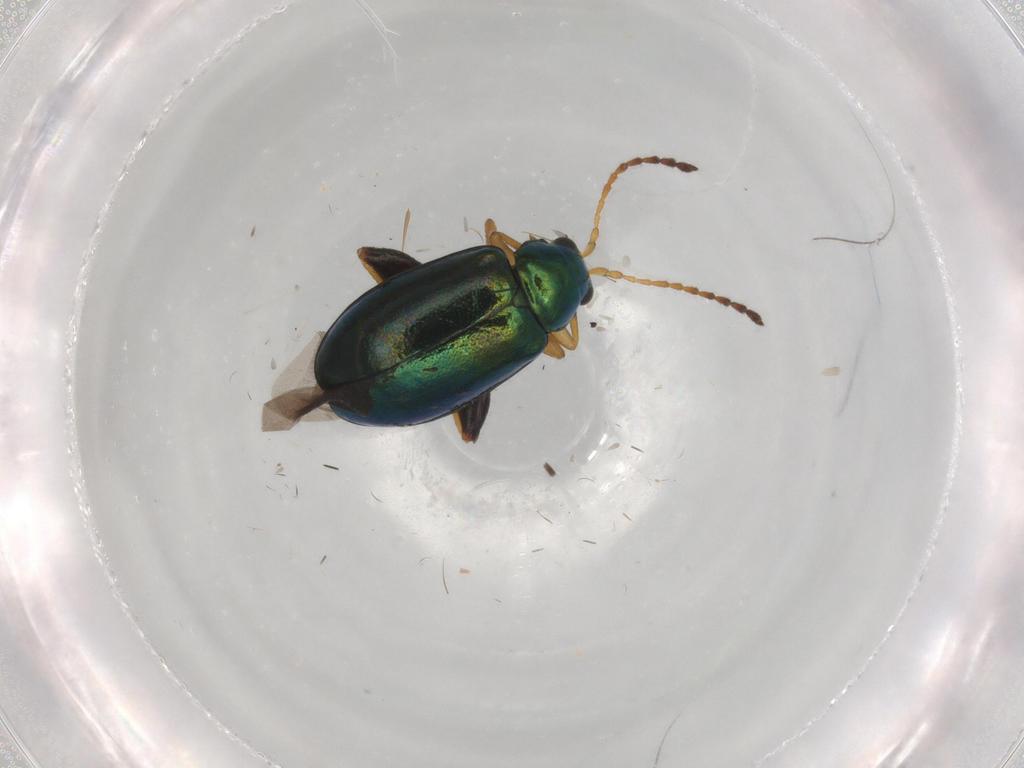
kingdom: Animalia
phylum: Arthropoda
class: Insecta
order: Coleoptera
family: Chrysomelidae
